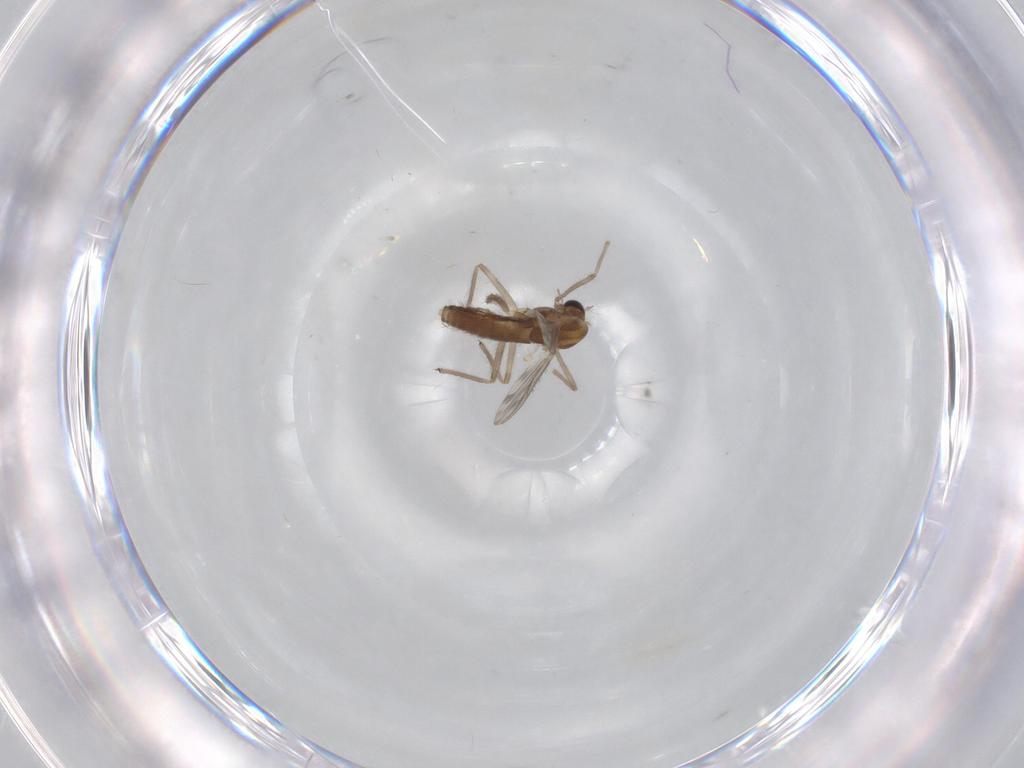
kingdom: Animalia
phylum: Arthropoda
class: Insecta
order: Diptera
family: Chironomidae
